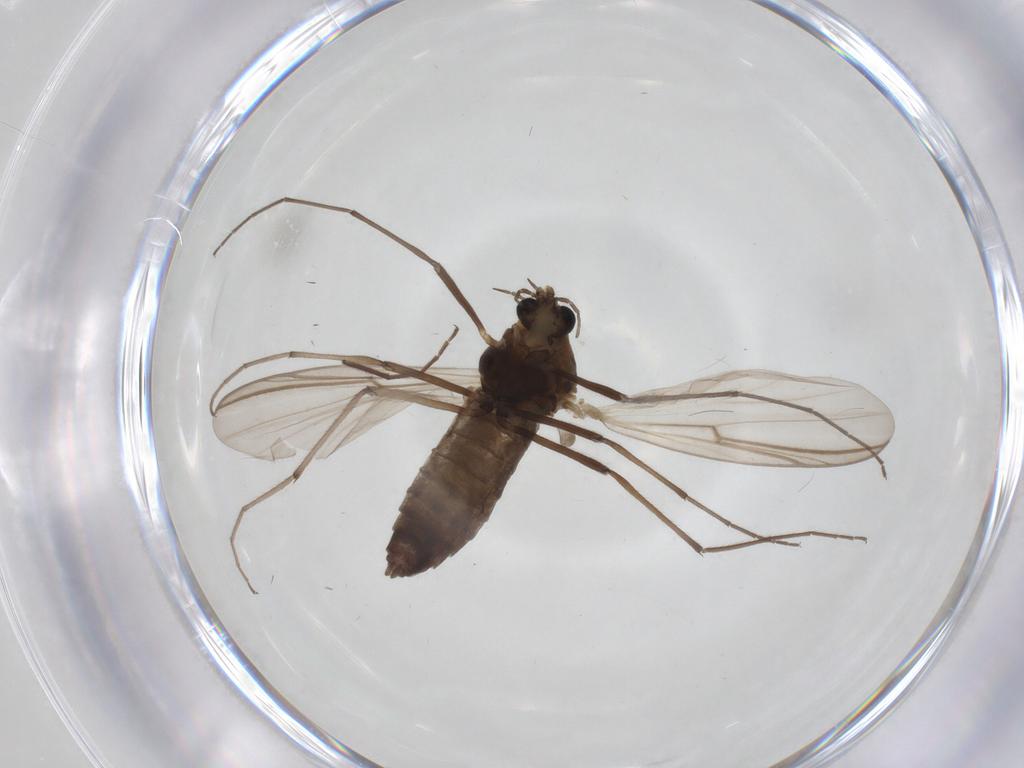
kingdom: Animalia
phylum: Arthropoda
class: Insecta
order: Diptera
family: Chironomidae
